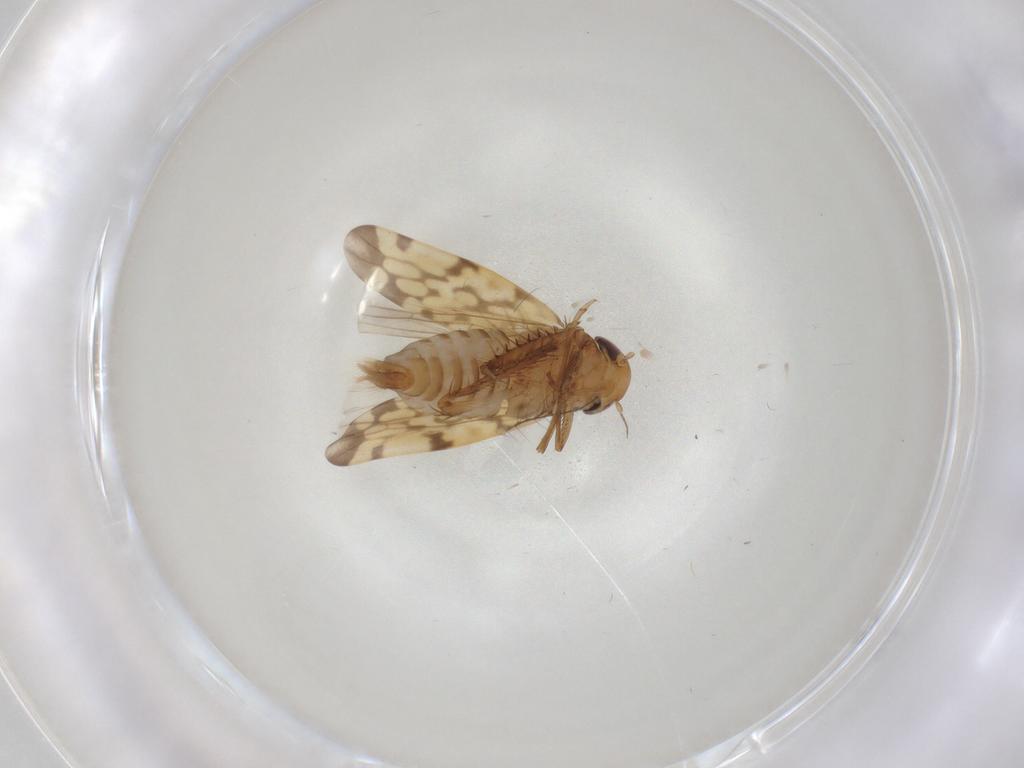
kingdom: Animalia
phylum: Arthropoda
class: Insecta
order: Hemiptera
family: Cicadellidae
